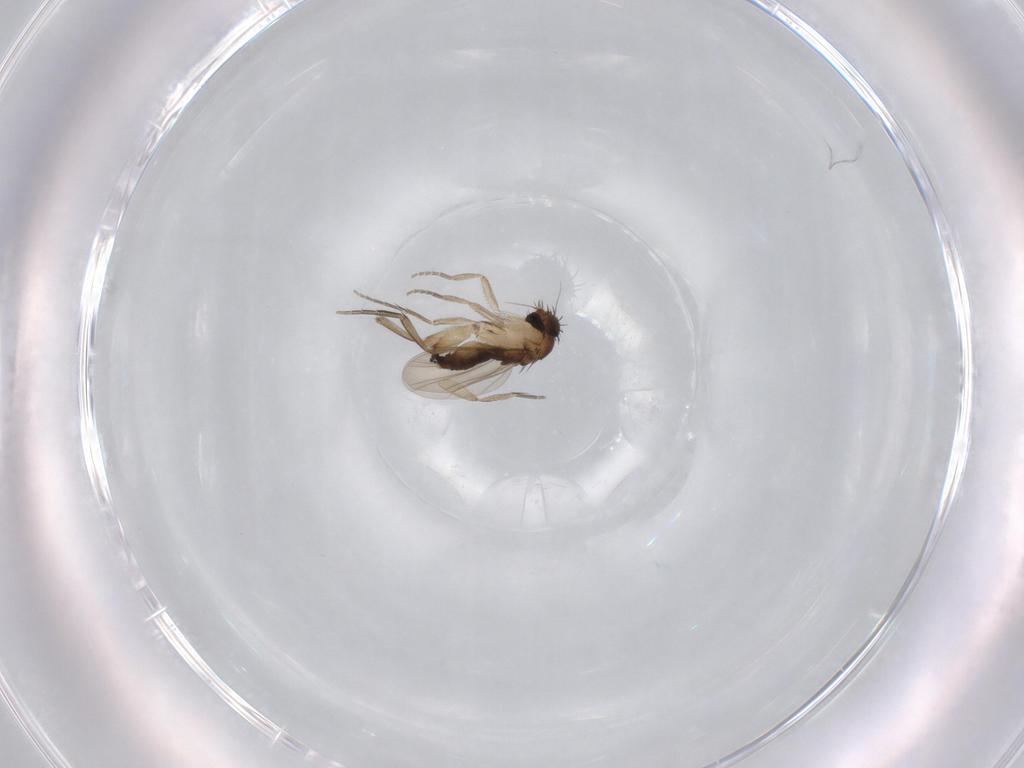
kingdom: Animalia
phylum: Arthropoda
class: Insecta
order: Diptera
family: Phoridae
